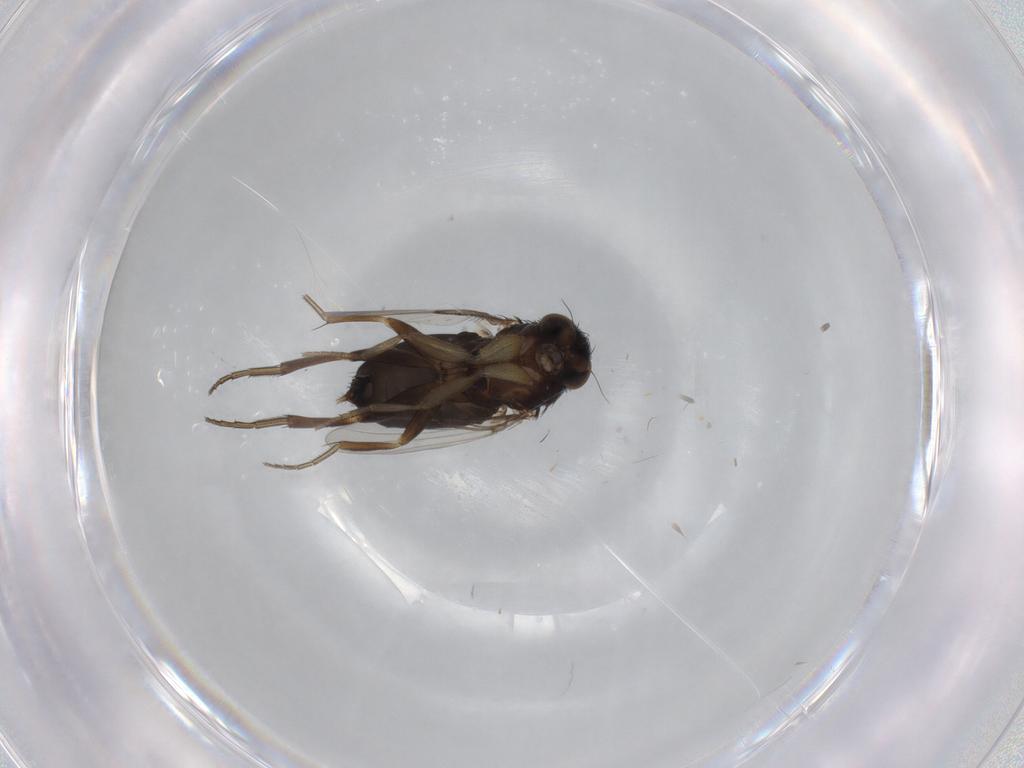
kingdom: Animalia
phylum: Arthropoda
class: Insecta
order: Diptera
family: Phoridae
